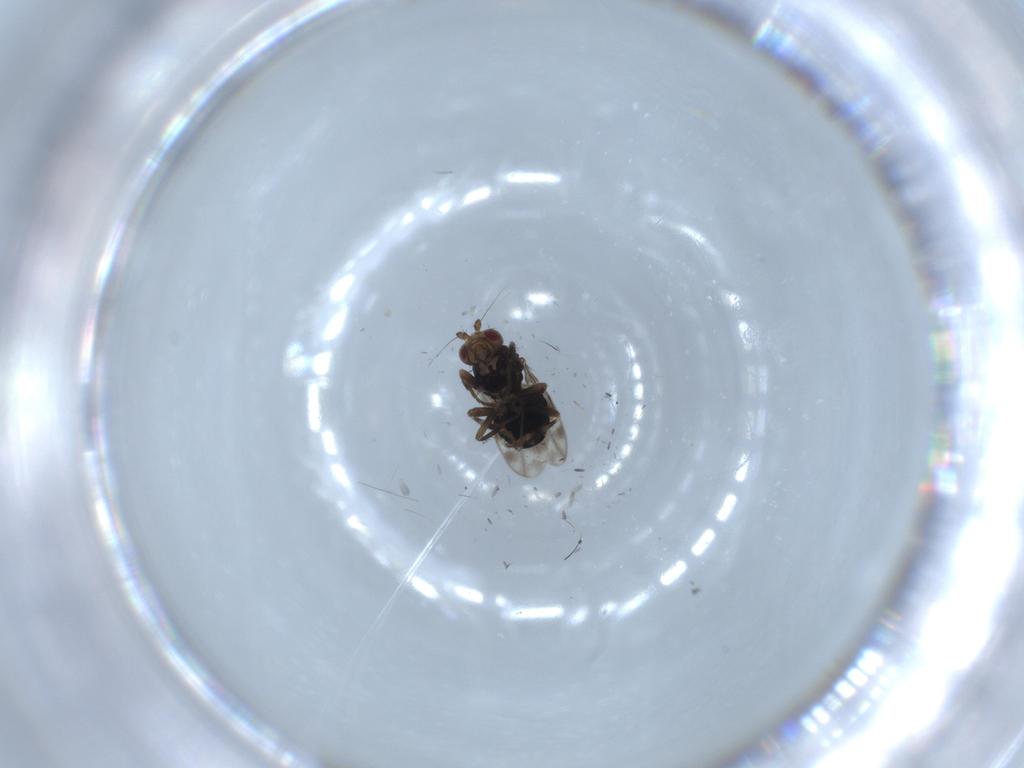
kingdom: Animalia
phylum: Arthropoda
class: Insecta
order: Diptera
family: Sphaeroceridae
